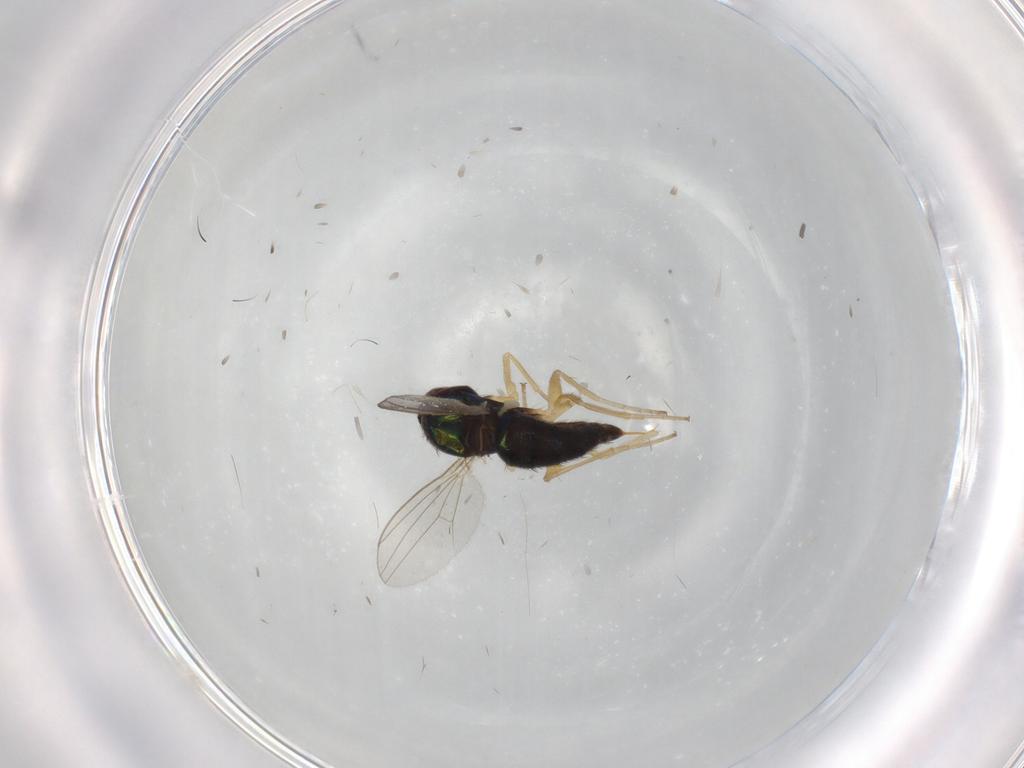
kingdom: Animalia
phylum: Arthropoda
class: Insecta
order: Diptera
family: Dolichopodidae
